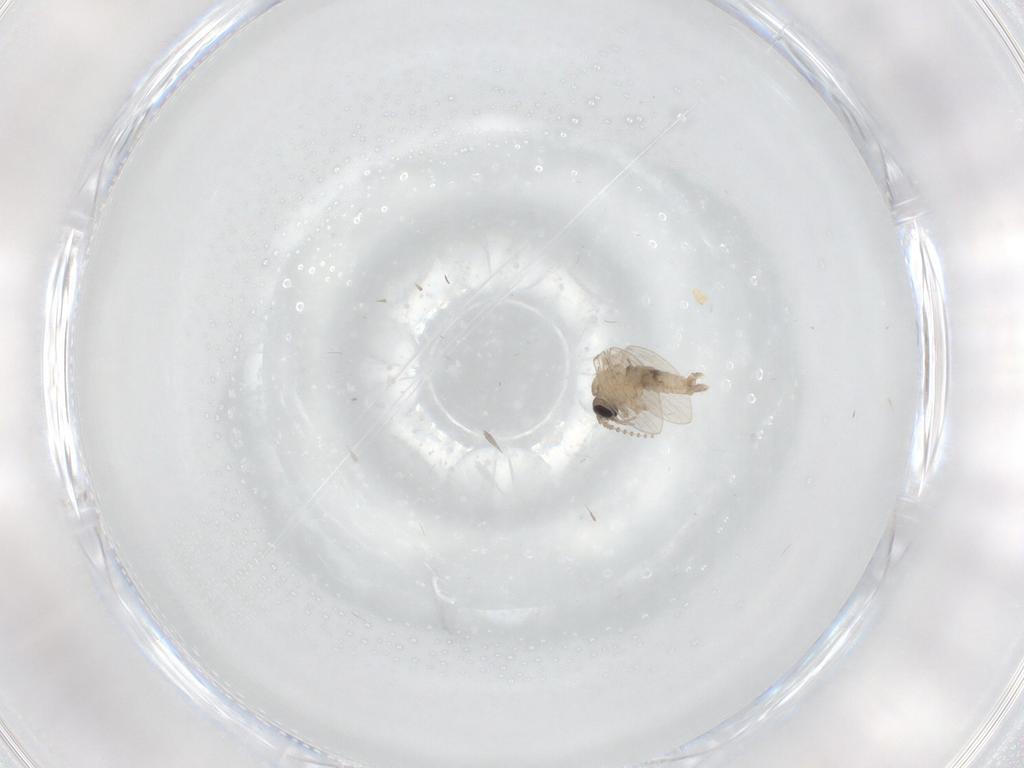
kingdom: Animalia
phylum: Arthropoda
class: Insecta
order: Diptera
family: Psychodidae
